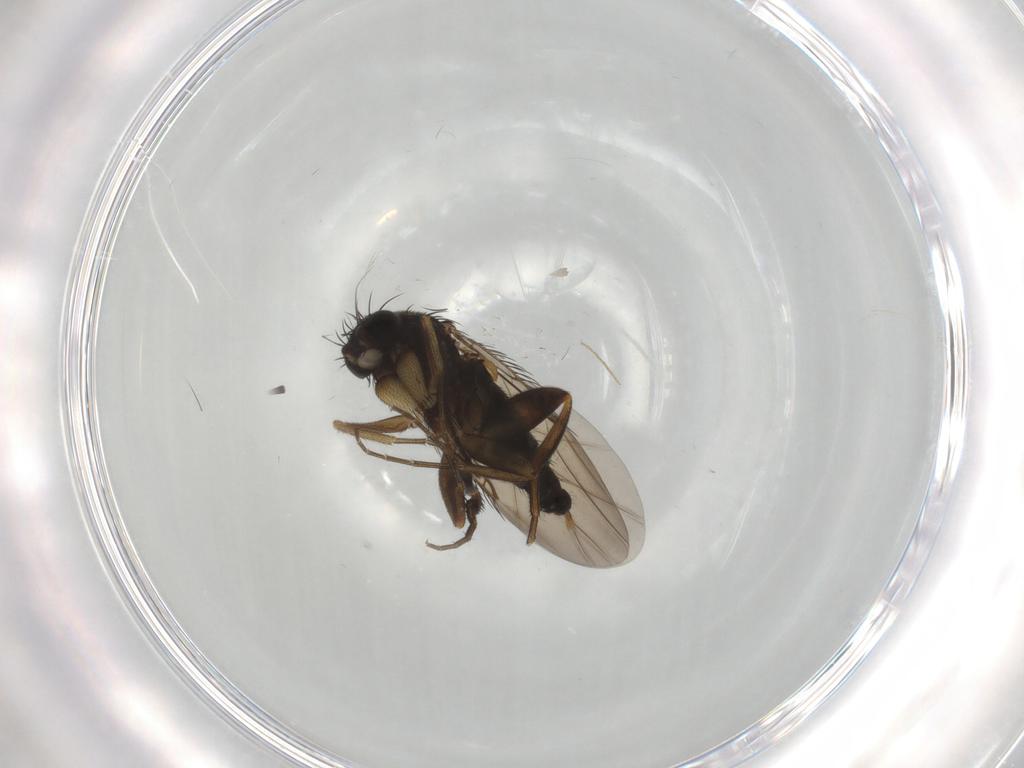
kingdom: Animalia
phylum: Arthropoda
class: Insecta
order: Diptera
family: Phoridae
